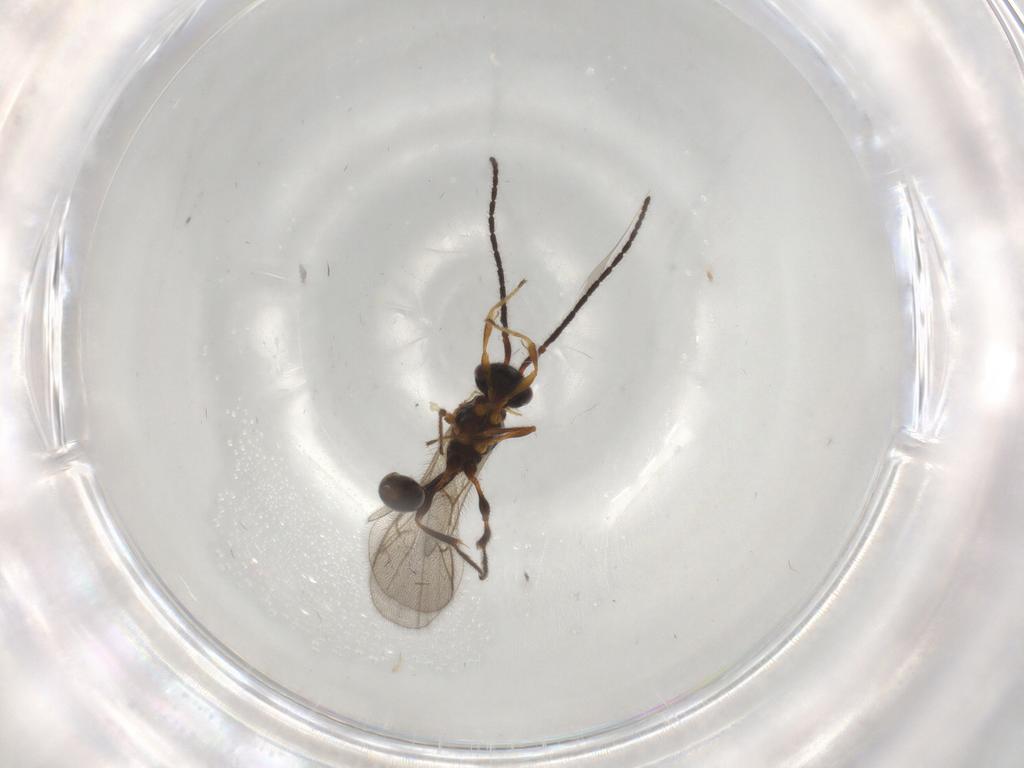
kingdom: Animalia
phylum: Arthropoda
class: Insecta
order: Hymenoptera
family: Diapriidae
